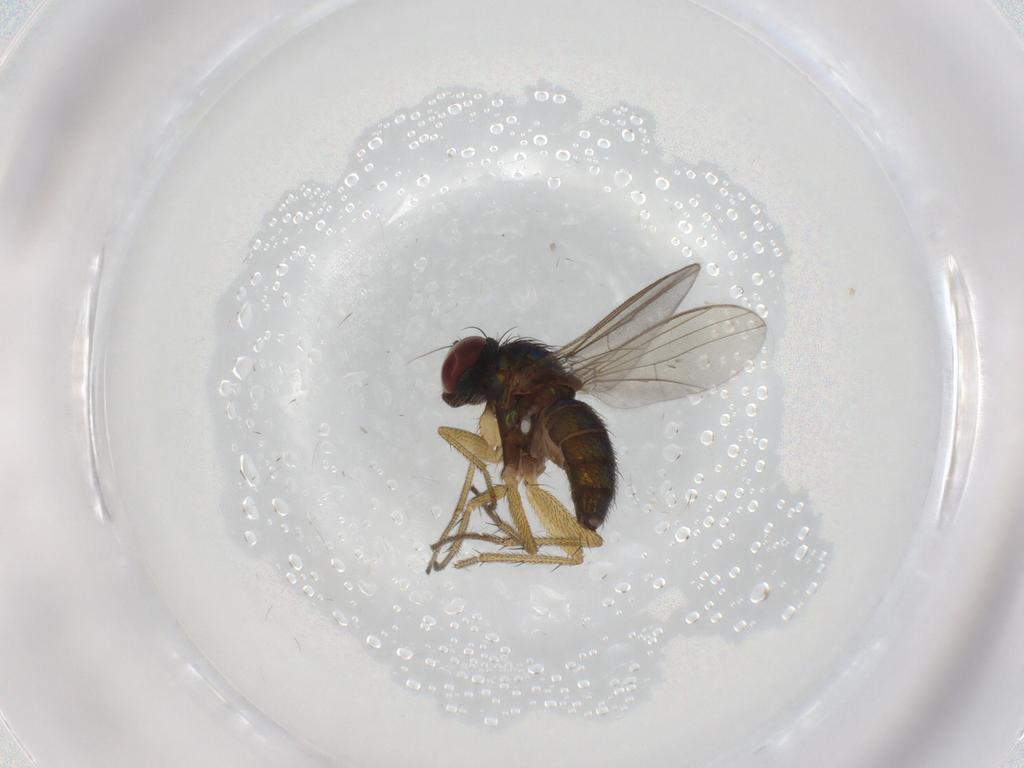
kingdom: Animalia
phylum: Arthropoda
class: Insecta
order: Diptera
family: Dolichopodidae
